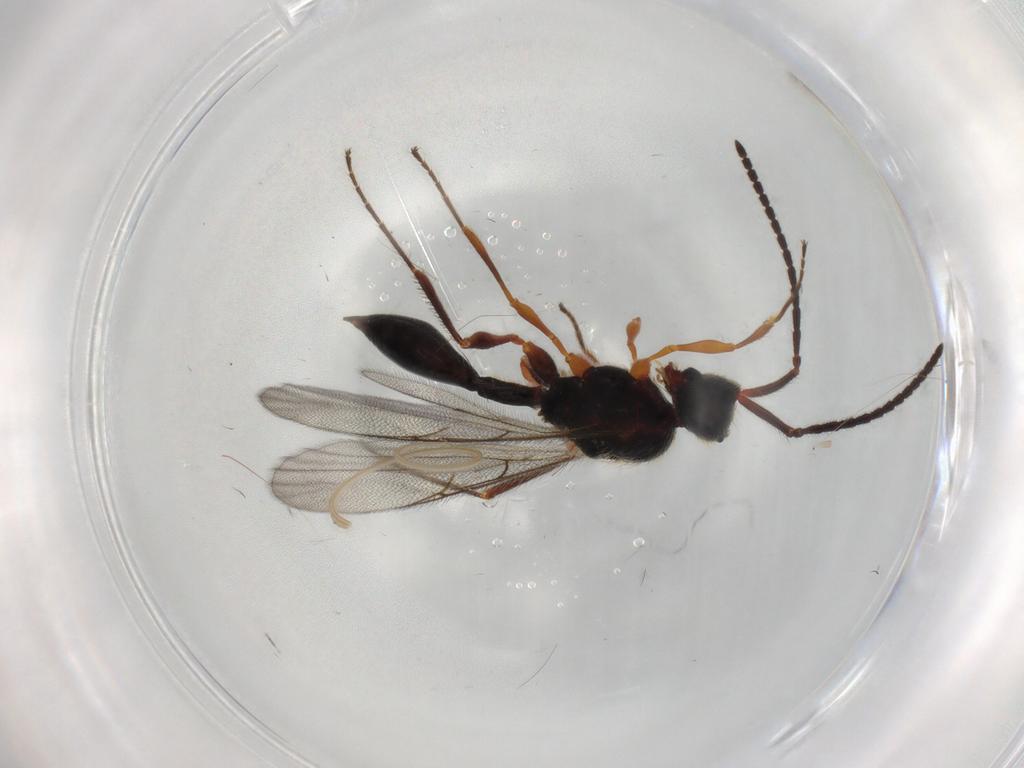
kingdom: Animalia
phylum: Arthropoda
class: Insecta
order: Hymenoptera
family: Diapriidae
